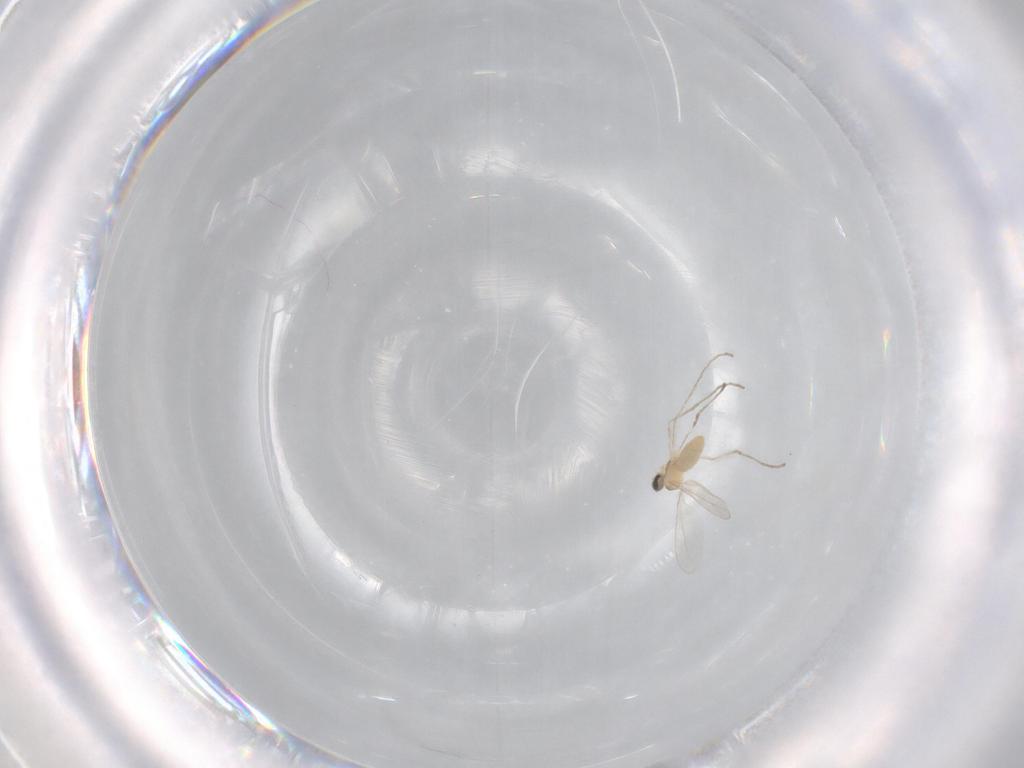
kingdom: Animalia
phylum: Arthropoda
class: Insecta
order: Diptera
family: Cecidomyiidae
